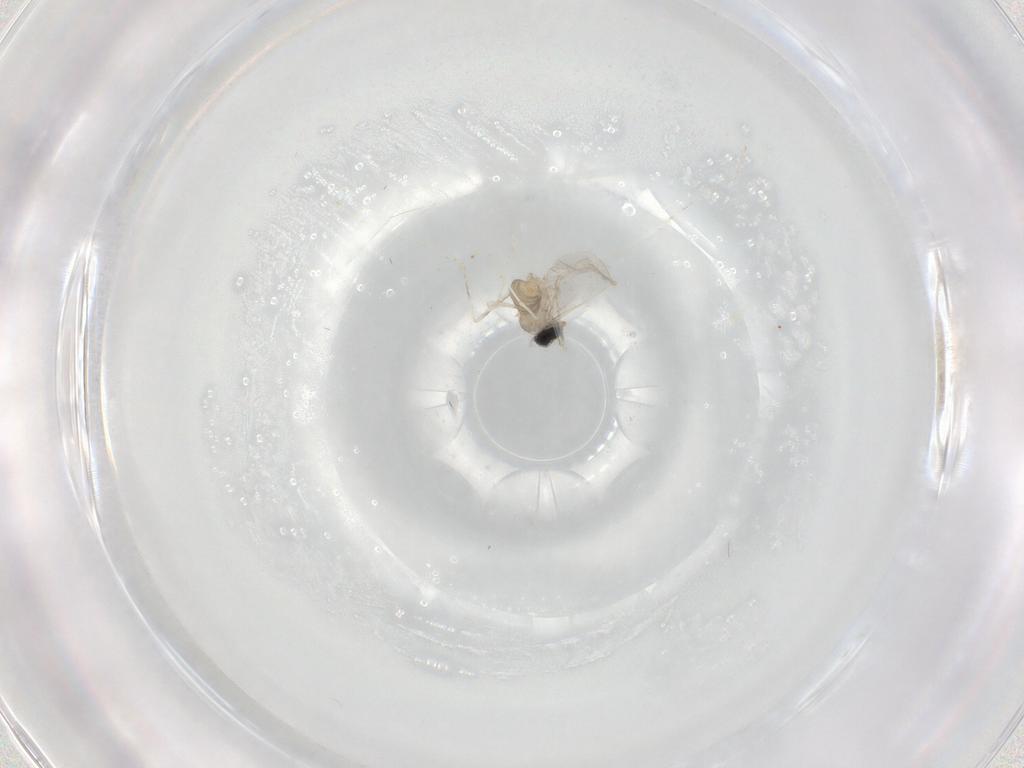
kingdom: Animalia
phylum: Arthropoda
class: Insecta
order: Diptera
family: Cecidomyiidae
